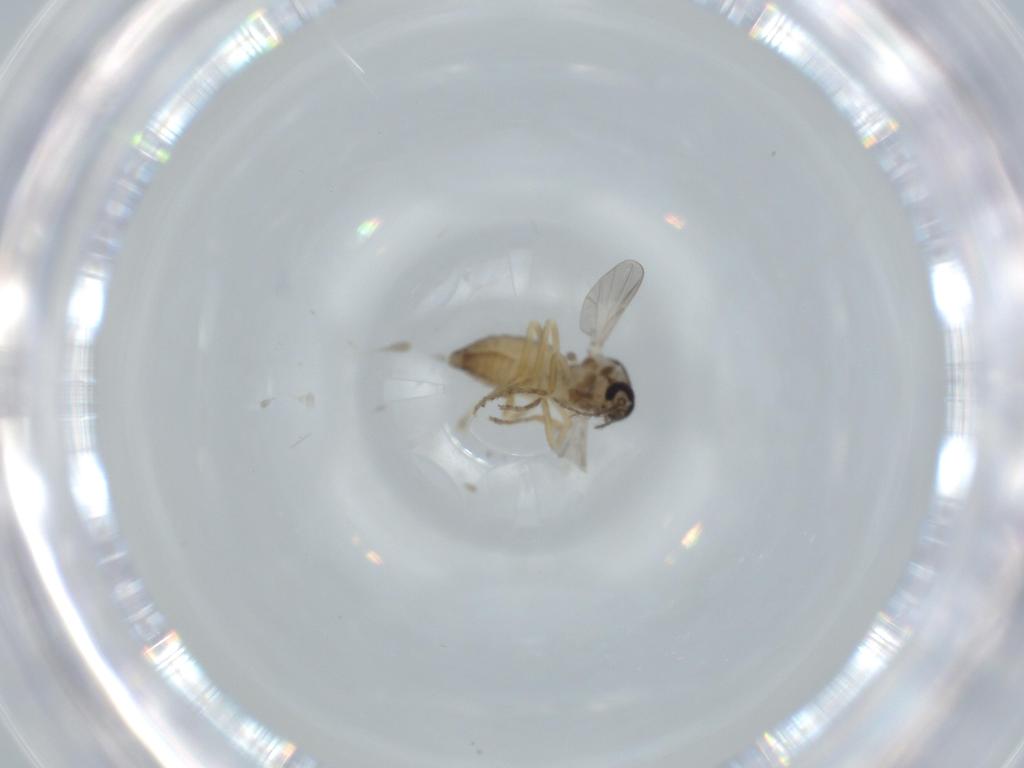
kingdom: Animalia
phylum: Arthropoda
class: Insecta
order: Diptera
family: Ceratopogonidae
